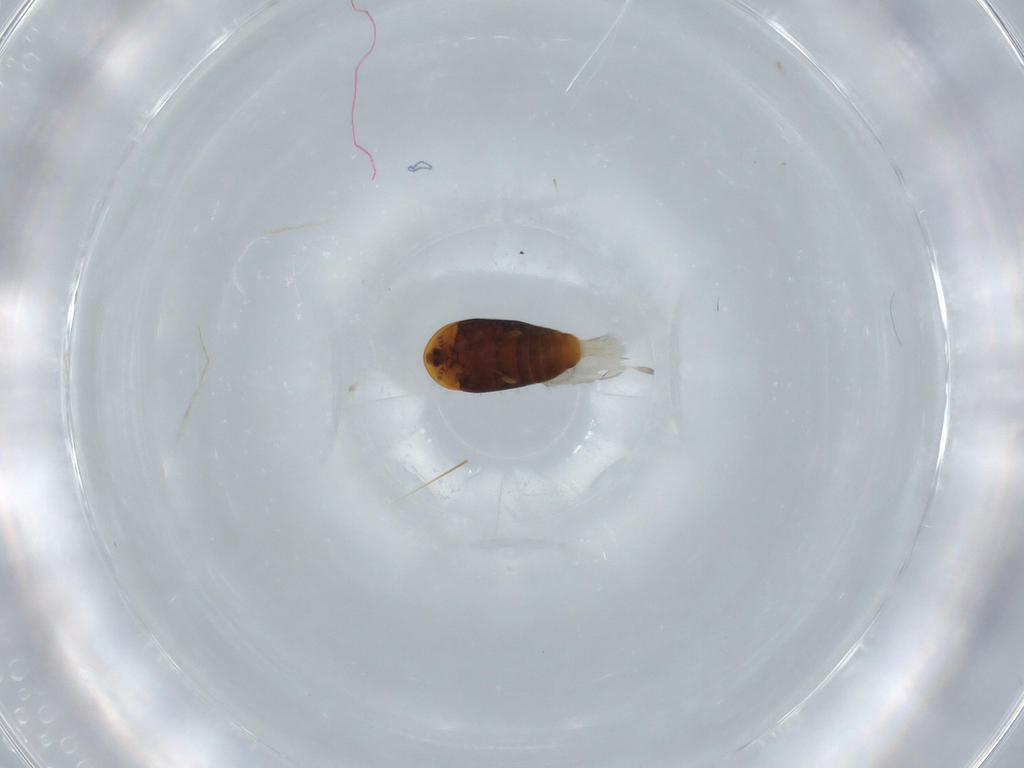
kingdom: Animalia
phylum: Arthropoda
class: Insecta
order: Coleoptera
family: Corylophidae
